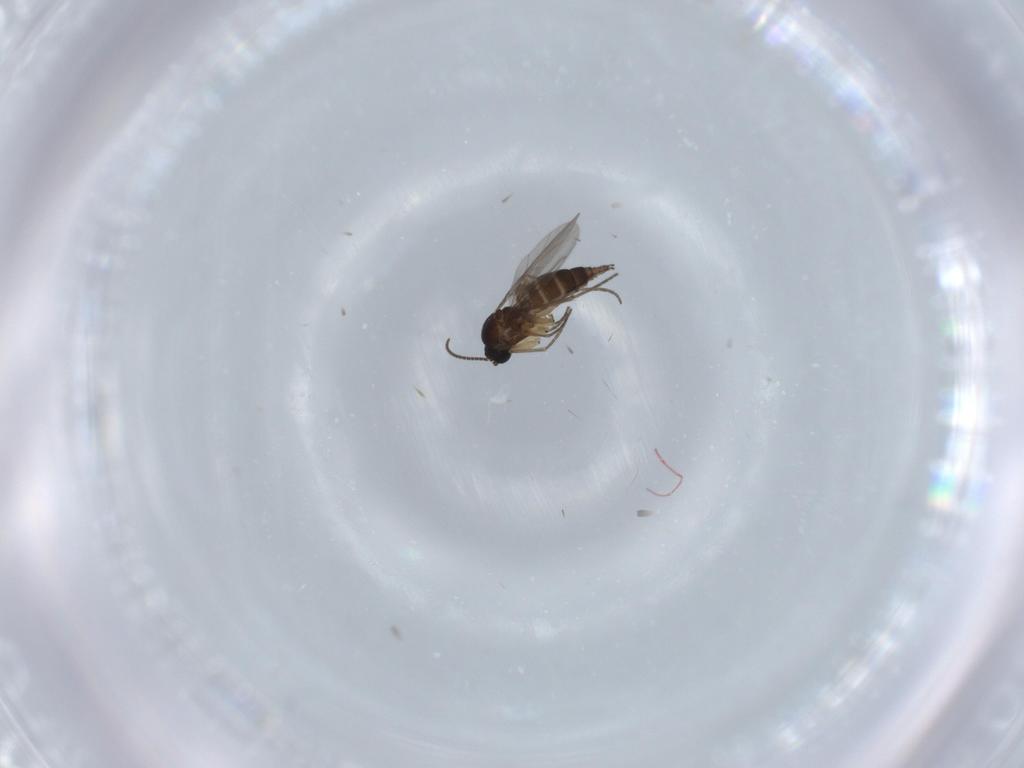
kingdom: Animalia
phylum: Arthropoda
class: Insecta
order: Diptera
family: Sciaridae
